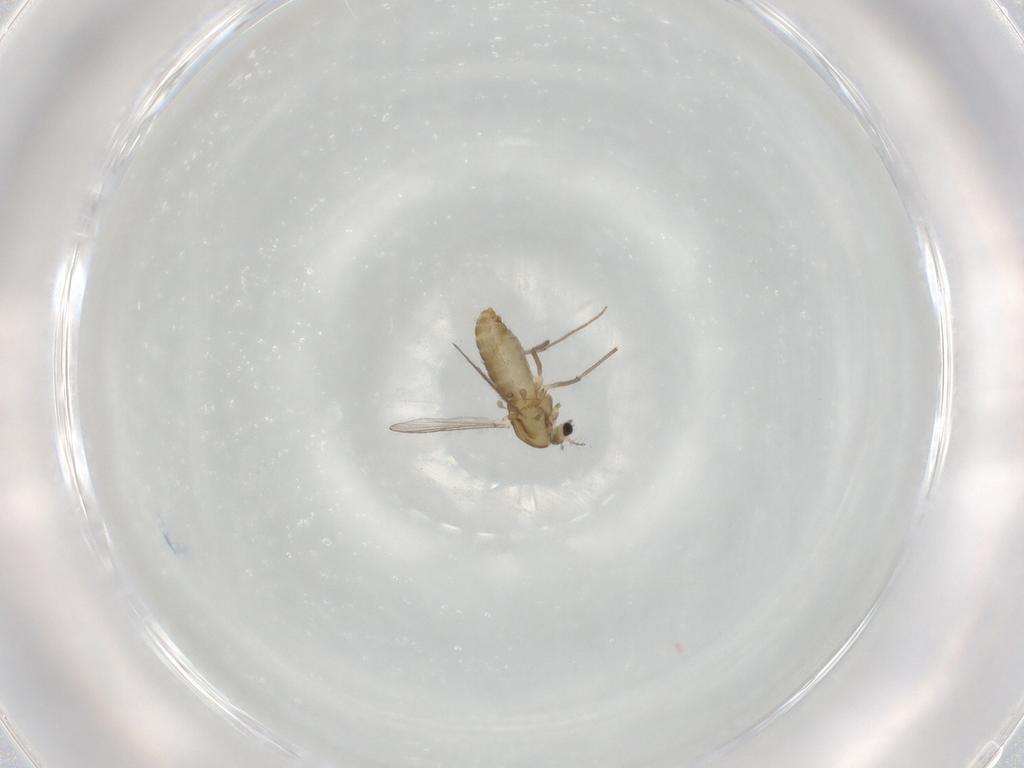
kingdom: Animalia
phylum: Arthropoda
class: Insecta
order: Diptera
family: Chironomidae
